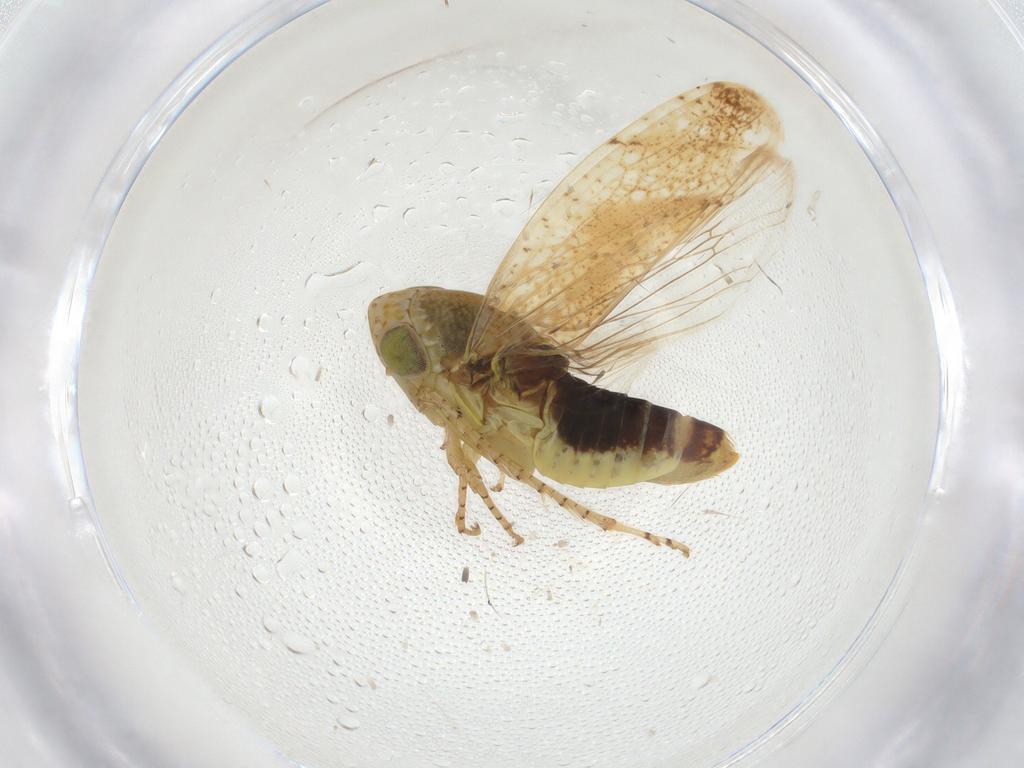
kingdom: Animalia
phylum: Arthropoda
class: Insecta
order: Hemiptera
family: Cicadellidae
